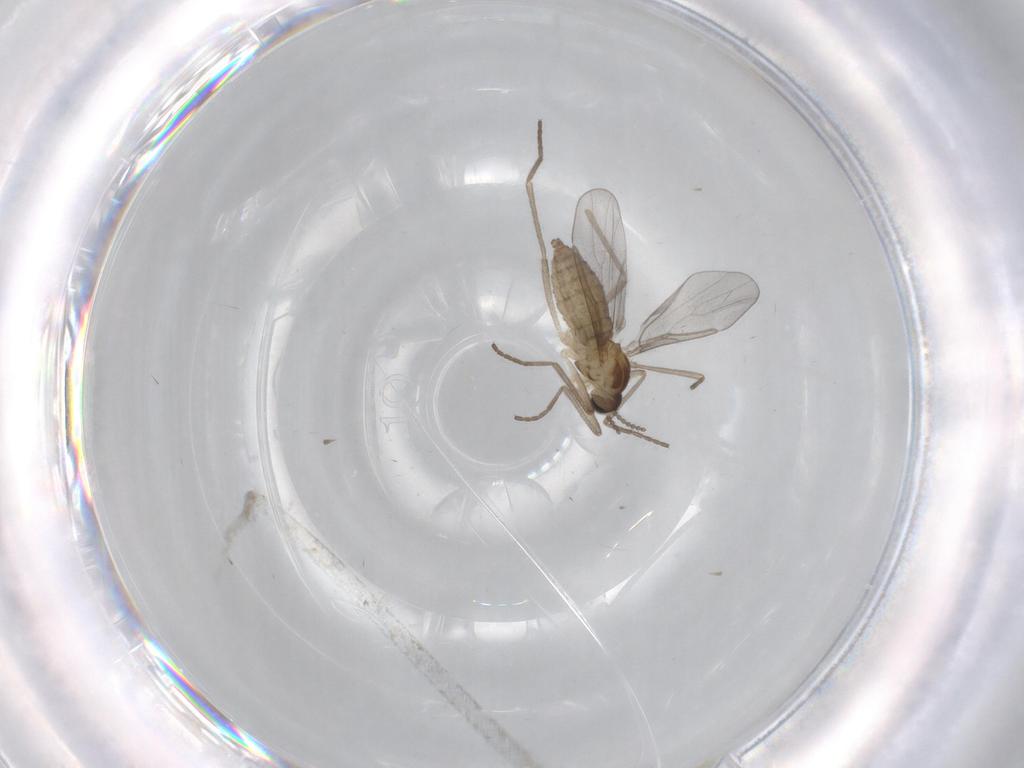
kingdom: Animalia
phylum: Arthropoda
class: Insecta
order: Diptera
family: Cecidomyiidae
